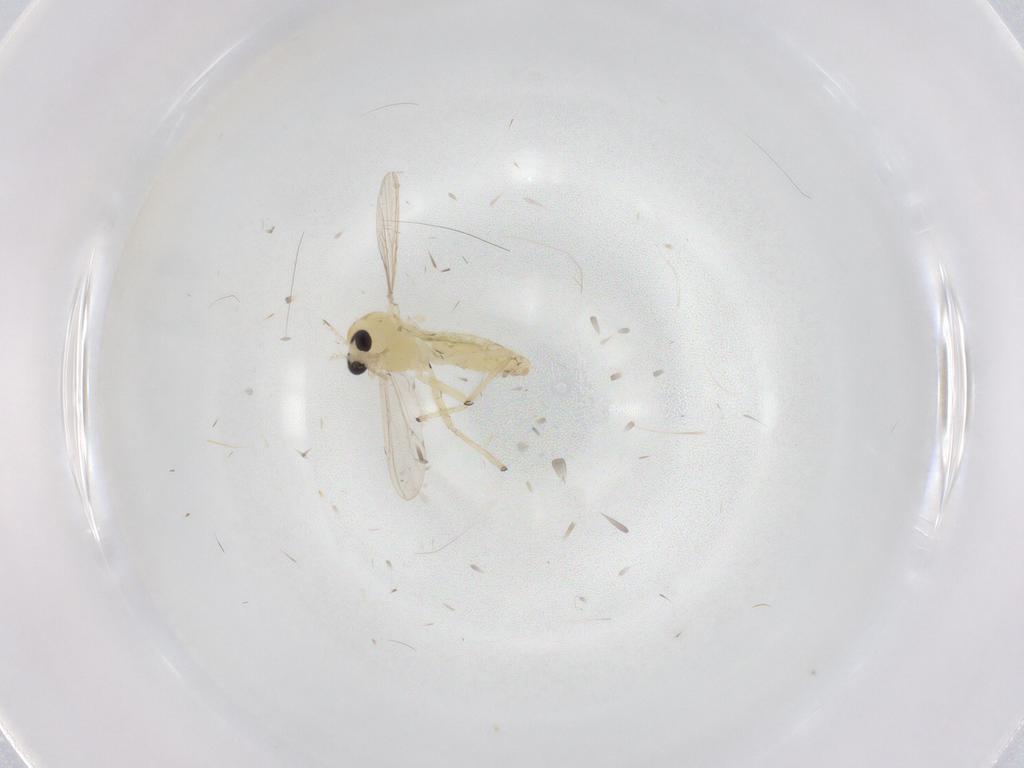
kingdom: Animalia
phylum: Arthropoda
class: Insecta
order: Diptera
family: Chironomidae
